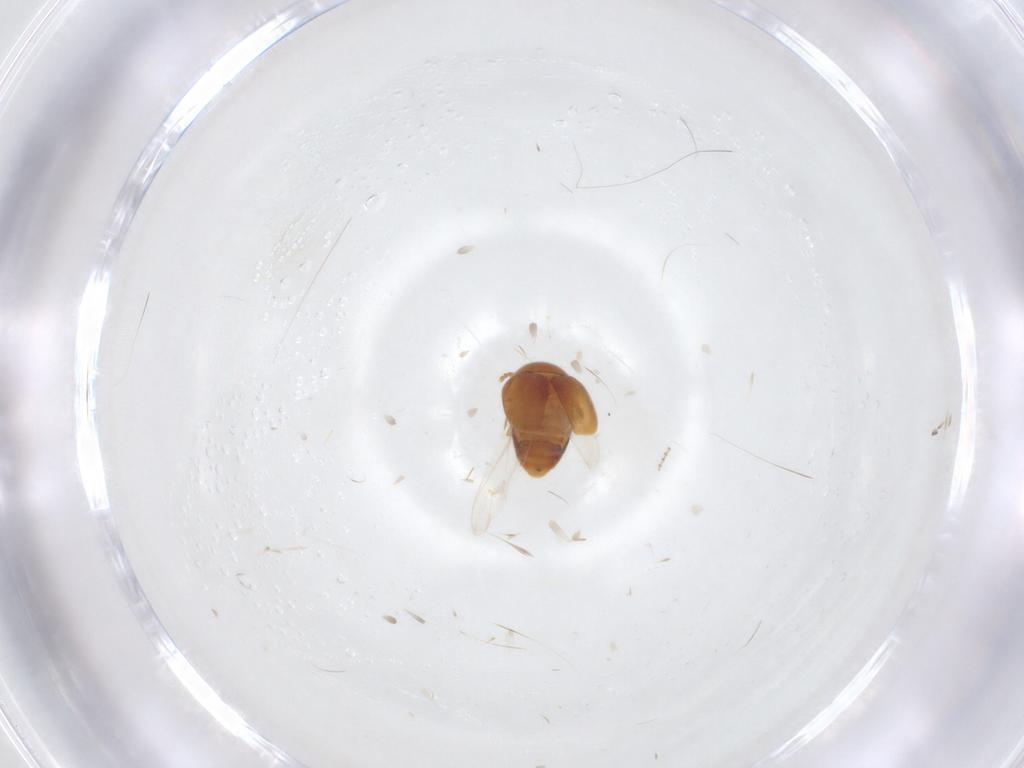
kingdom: Animalia
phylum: Arthropoda
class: Insecta
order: Coleoptera
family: Corylophidae
